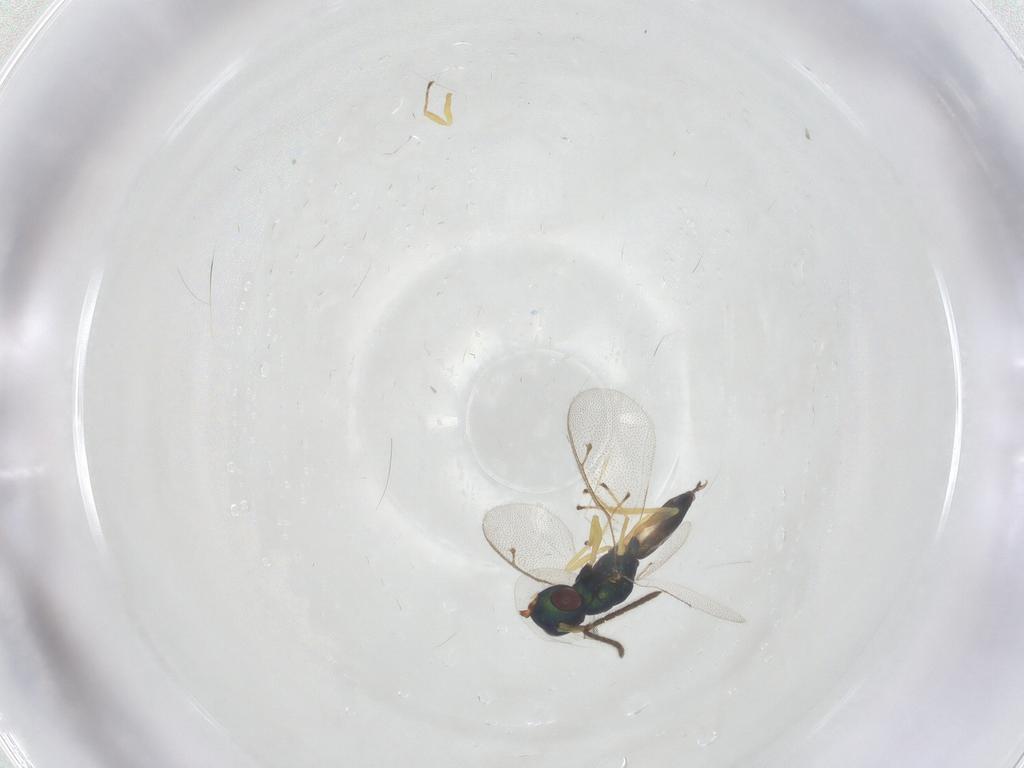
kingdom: Animalia
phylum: Arthropoda
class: Insecta
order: Hymenoptera
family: Pteromalidae
